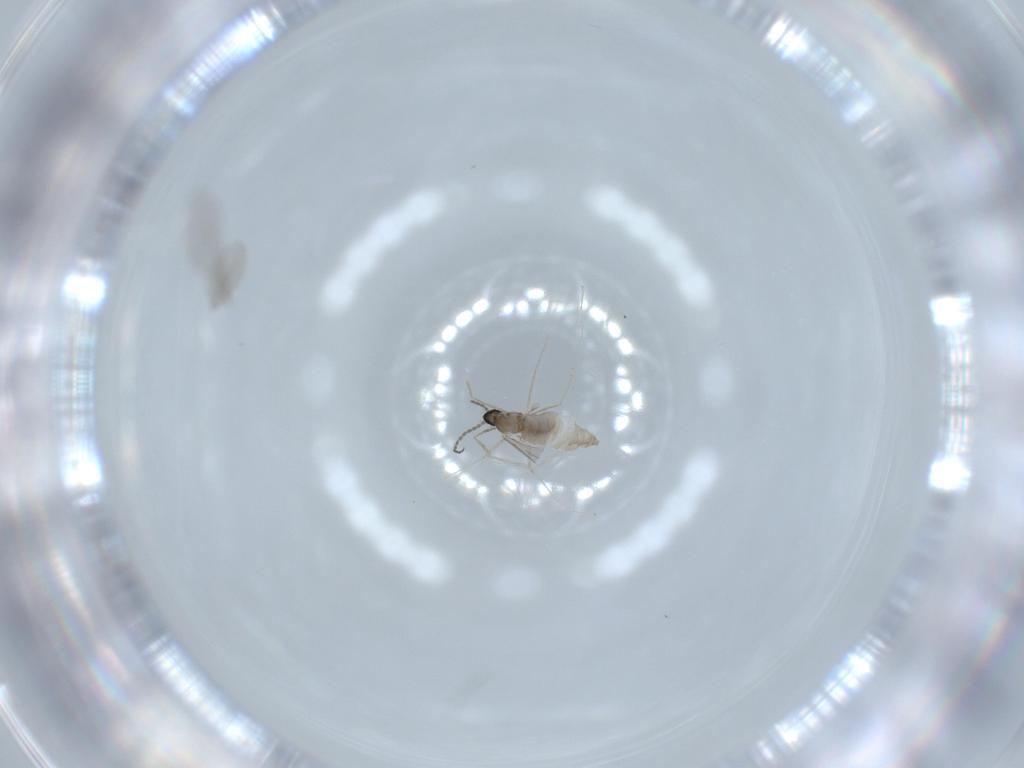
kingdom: Animalia
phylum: Arthropoda
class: Insecta
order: Diptera
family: Cecidomyiidae
